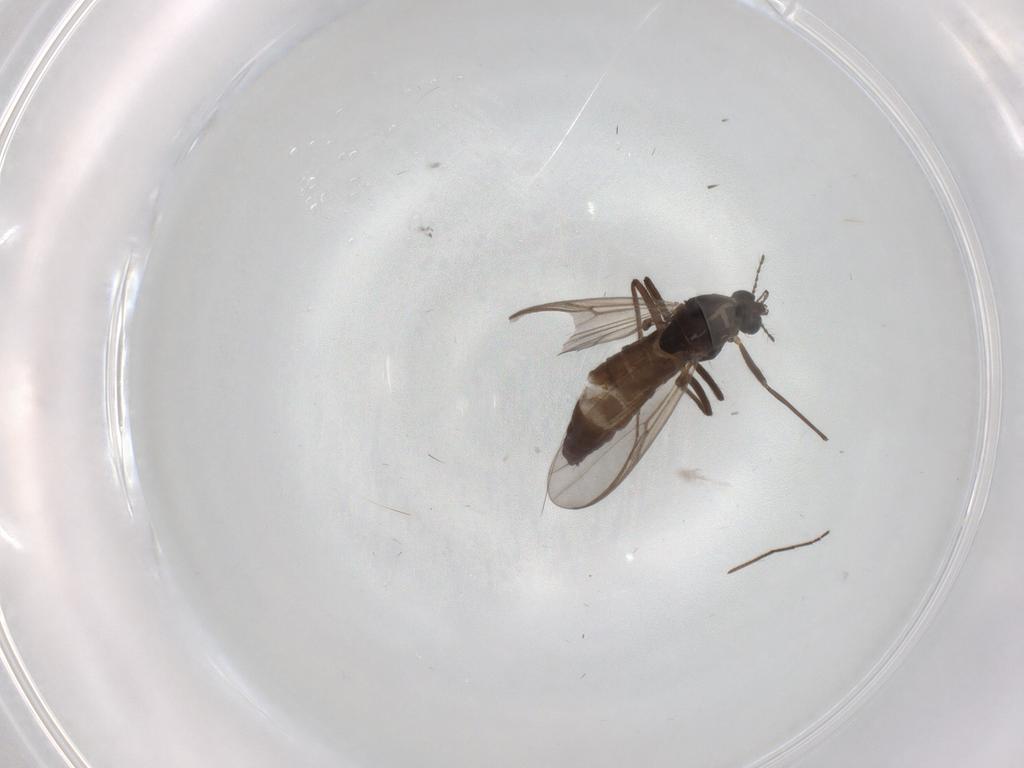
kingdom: Animalia
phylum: Arthropoda
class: Insecta
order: Diptera
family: Chironomidae
